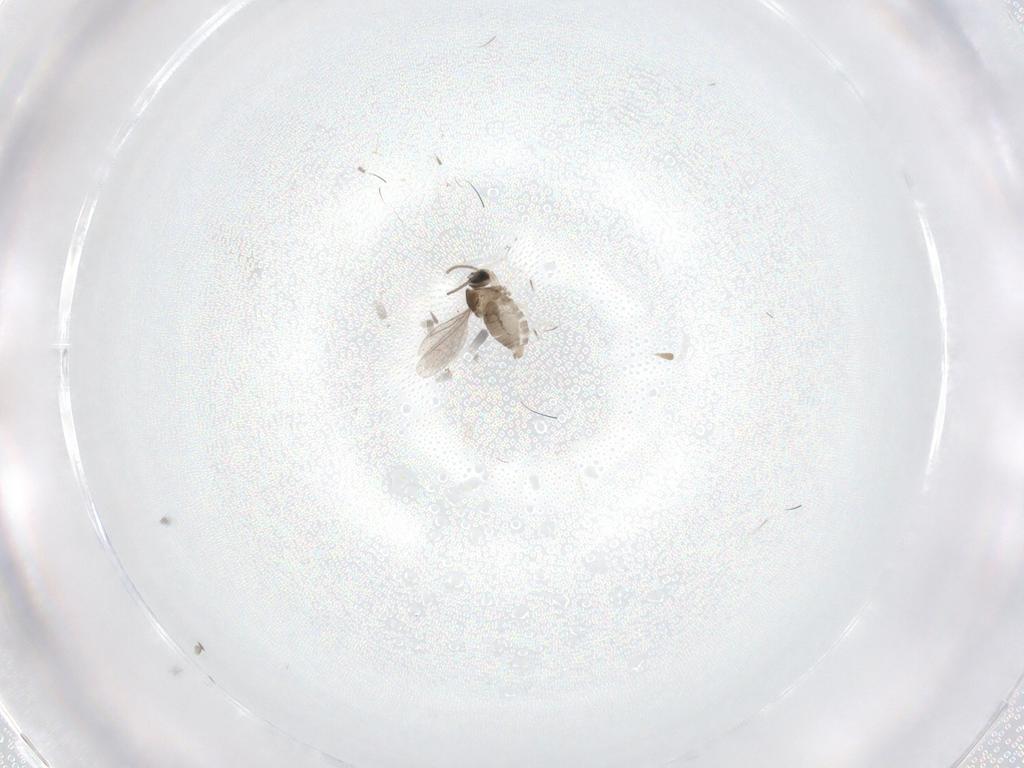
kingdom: Animalia
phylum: Arthropoda
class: Insecta
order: Diptera
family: Cecidomyiidae
